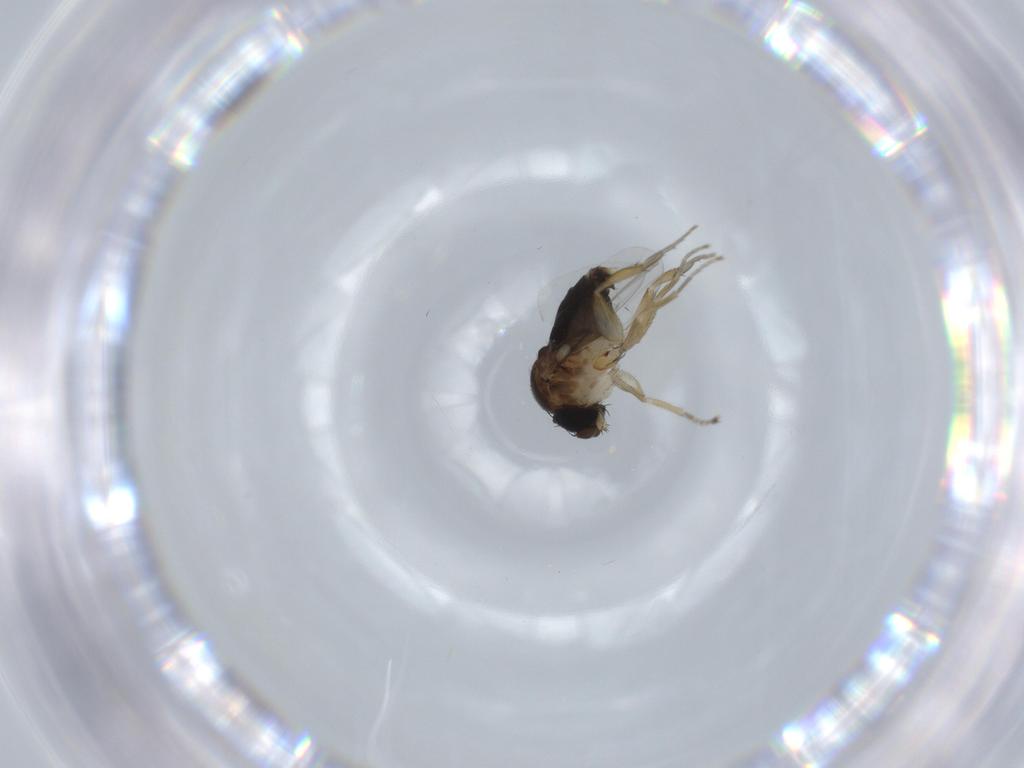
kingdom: Animalia
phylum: Arthropoda
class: Insecta
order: Diptera
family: Phoridae
